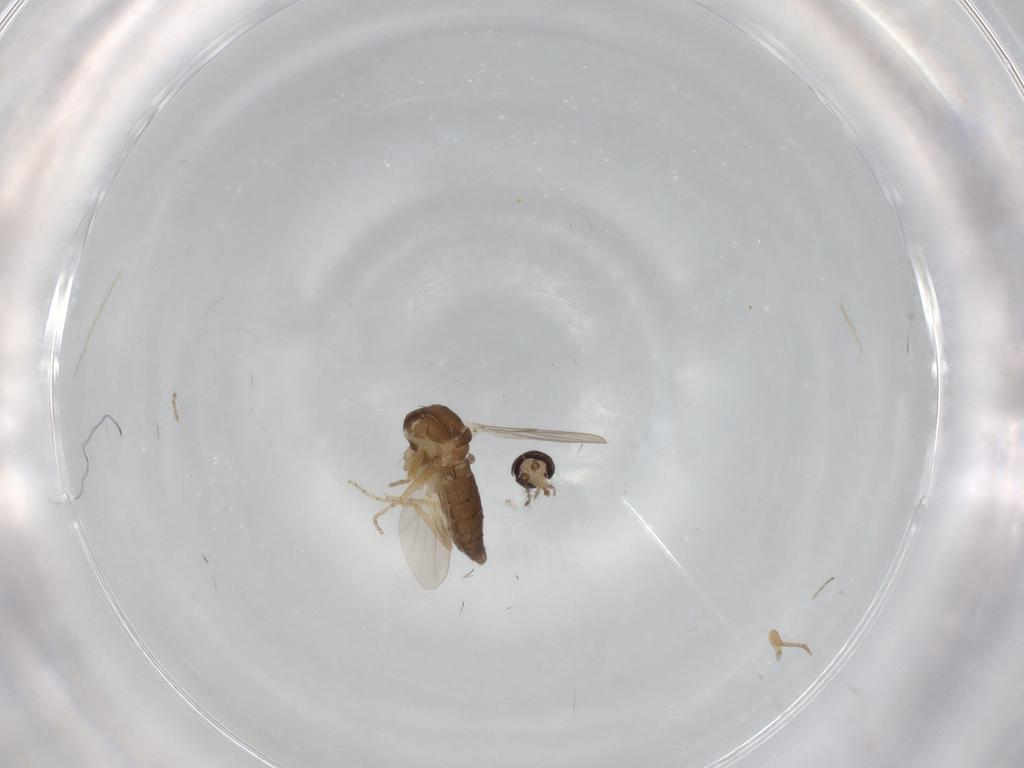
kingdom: Animalia
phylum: Arthropoda
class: Insecta
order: Diptera
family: Ceratopogonidae
